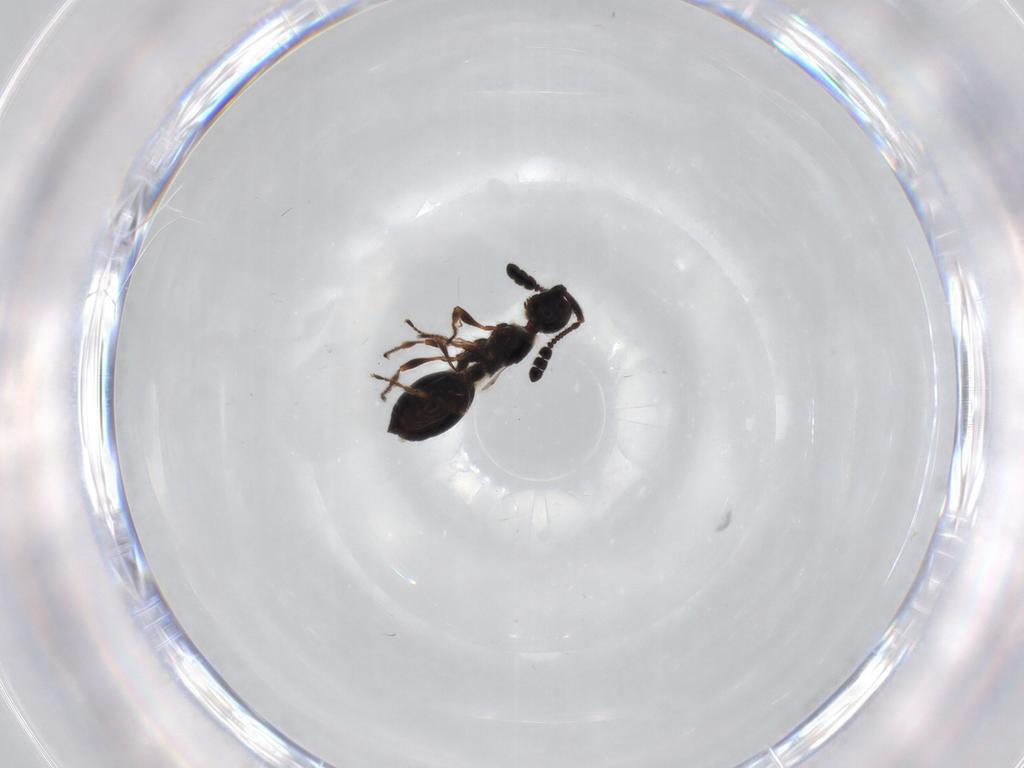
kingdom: Animalia
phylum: Arthropoda
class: Insecta
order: Hymenoptera
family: Diapriidae
